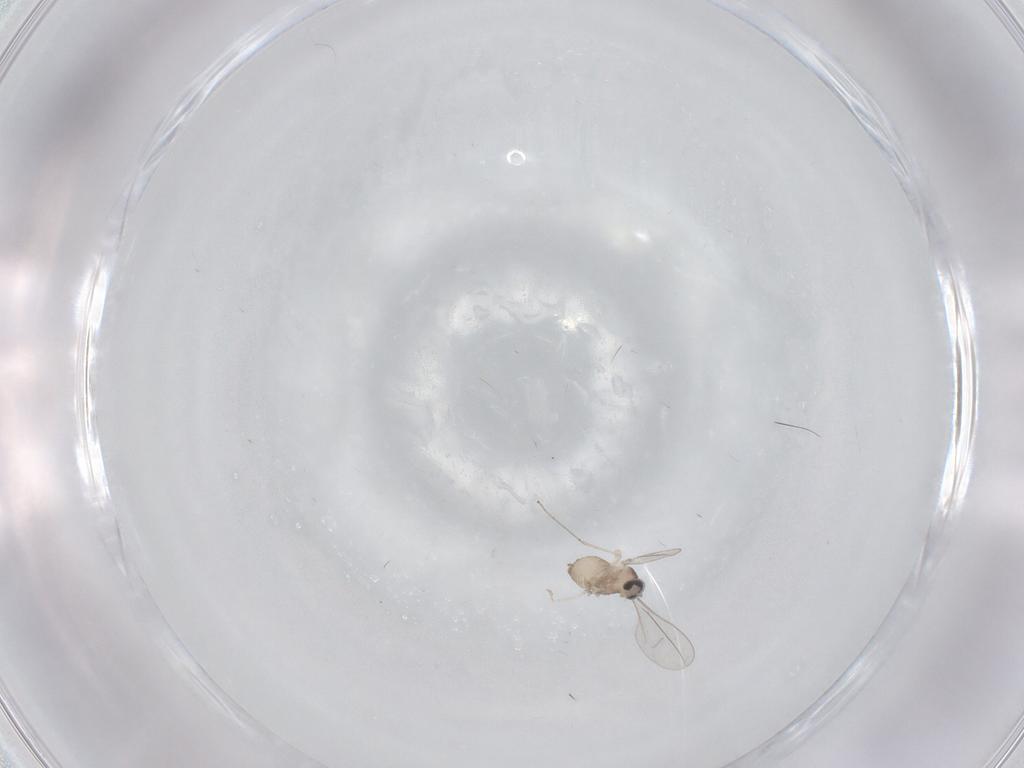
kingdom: Animalia
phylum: Arthropoda
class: Insecta
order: Diptera
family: Cecidomyiidae
